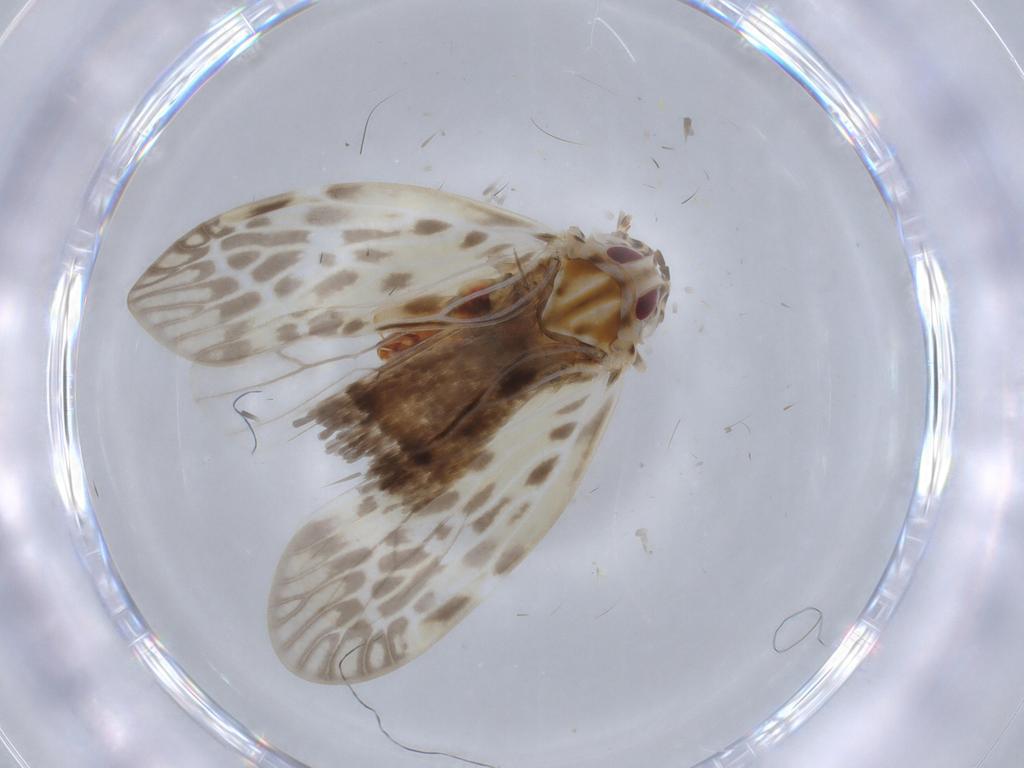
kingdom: Animalia
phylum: Arthropoda
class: Insecta
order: Hemiptera
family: Derbidae
